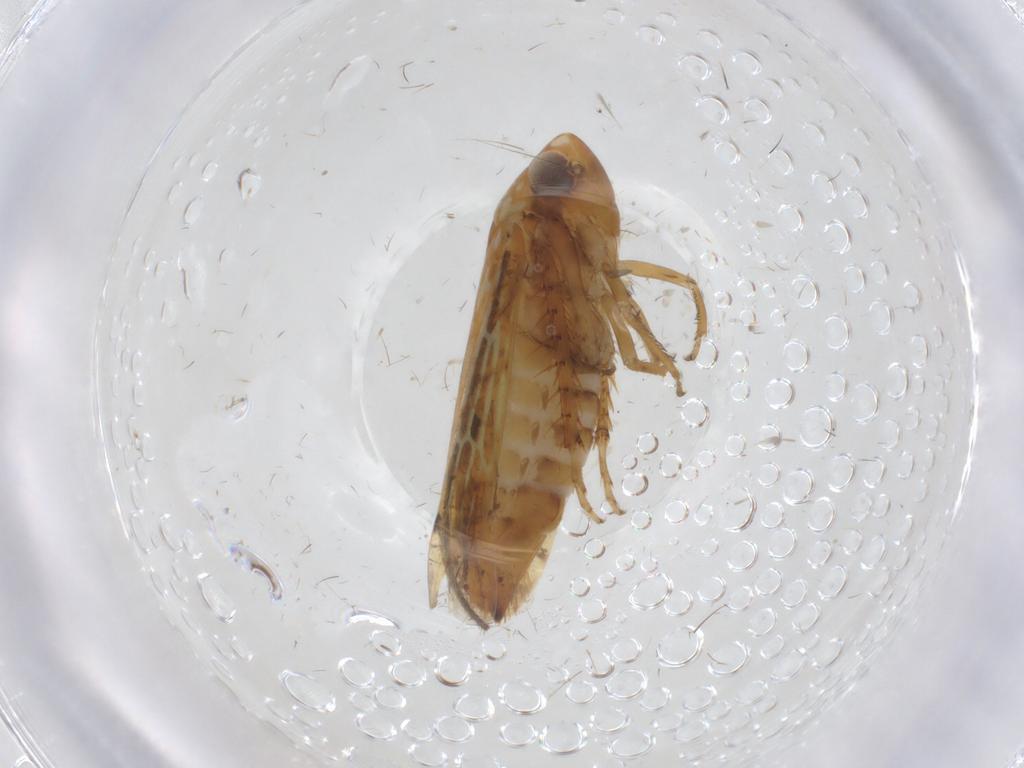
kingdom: Animalia
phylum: Arthropoda
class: Insecta
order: Hemiptera
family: Cicadellidae
